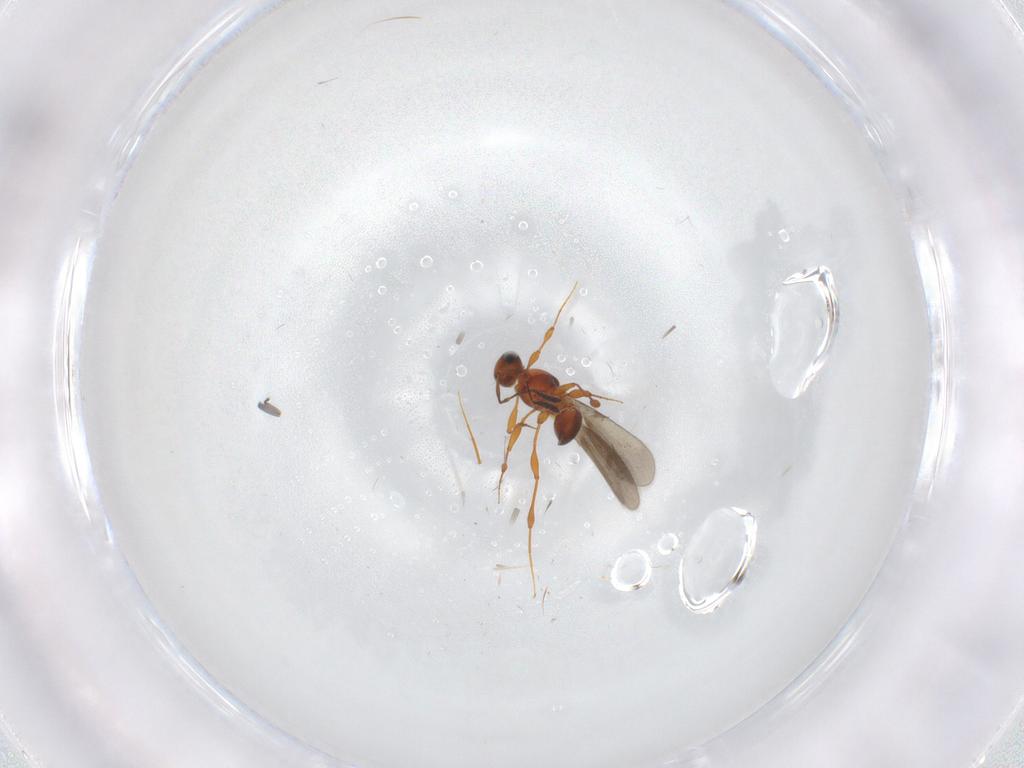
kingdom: Animalia
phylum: Arthropoda
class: Insecta
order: Hymenoptera
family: Platygastridae
